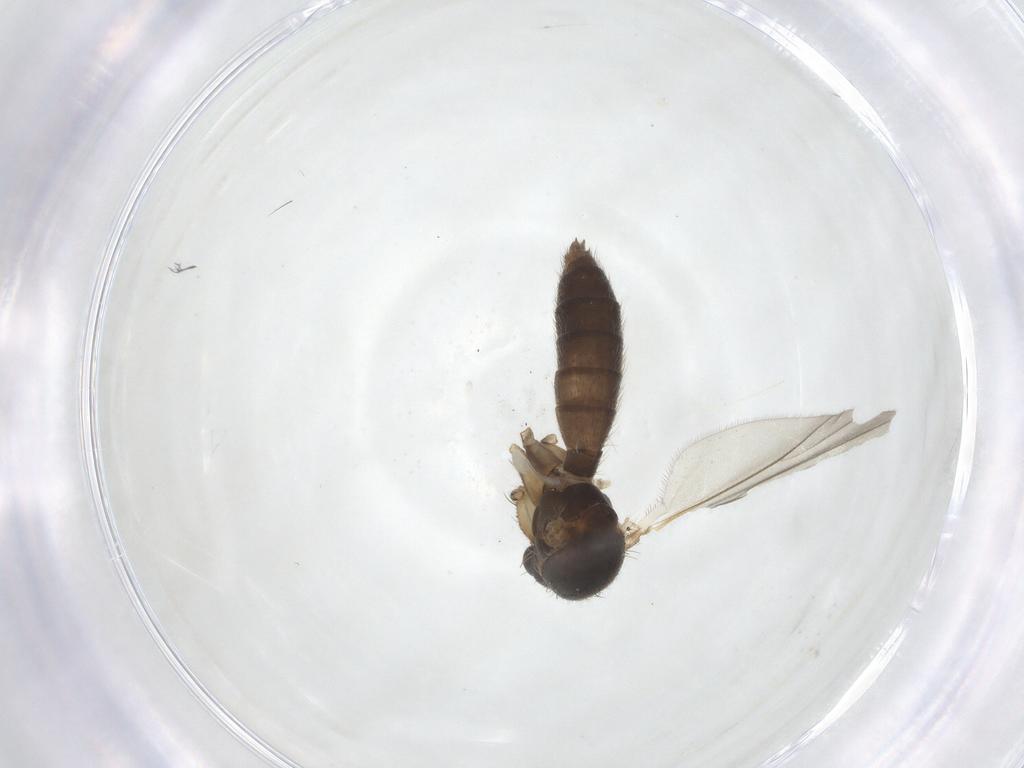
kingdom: Animalia
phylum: Arthropoda
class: Insecta
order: Diptera
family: Mycetophilidae
